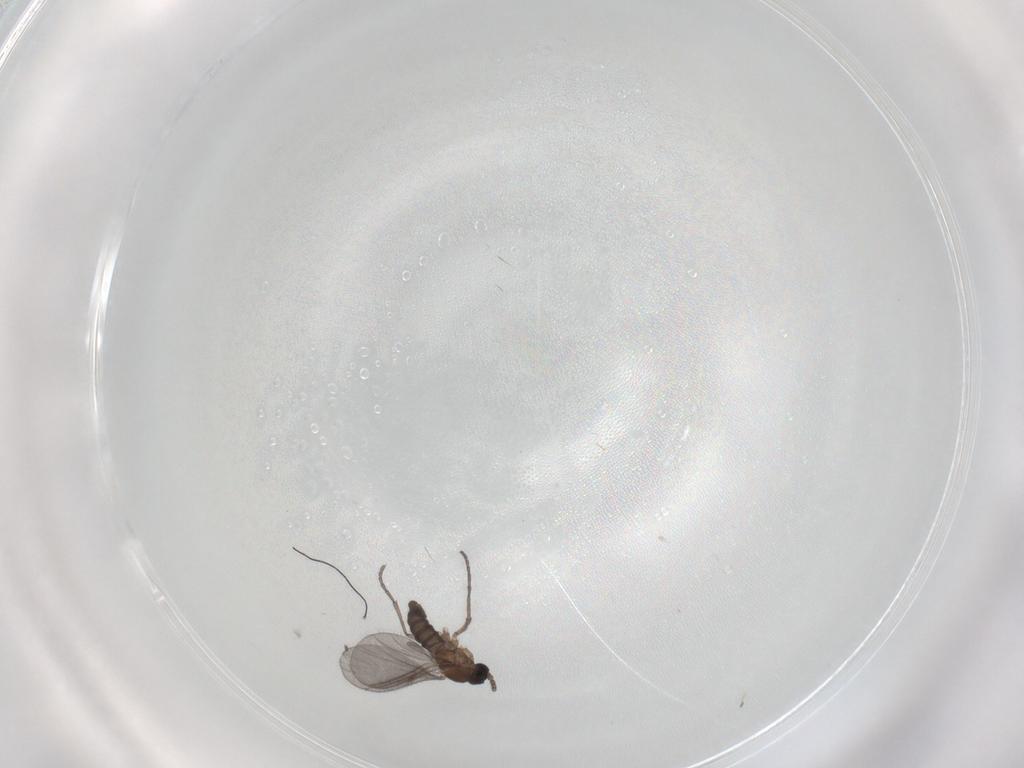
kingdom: Animalia
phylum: Arthropoda
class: Insecta
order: Diptera
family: Sciaridae
